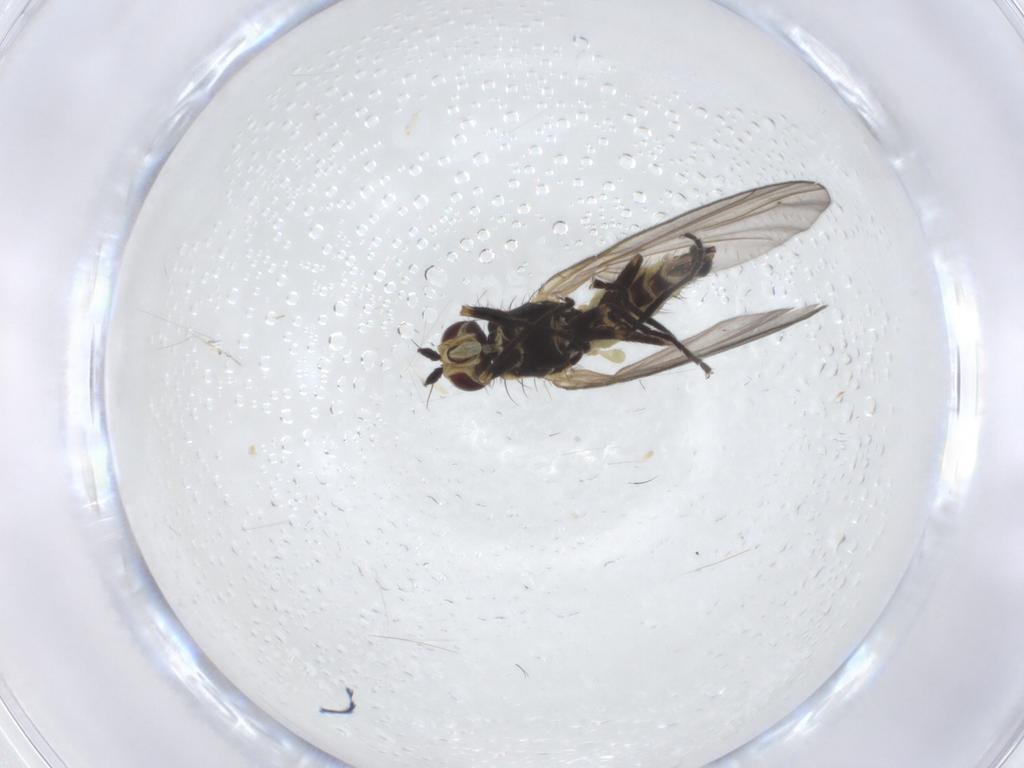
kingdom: Animalia
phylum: Arthropoda
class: Insecta
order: Diptera
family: Agromyzidae
